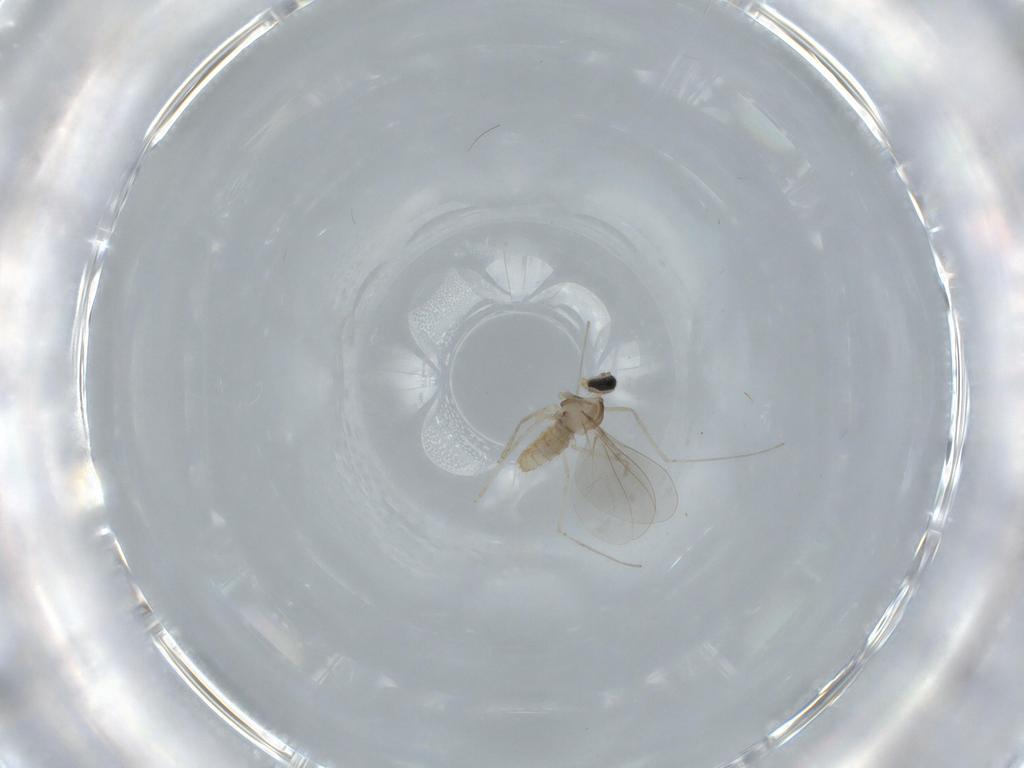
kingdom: Animalia
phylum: Arthropoda
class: Insecta
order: Diptera
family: Cecidomyiidae
